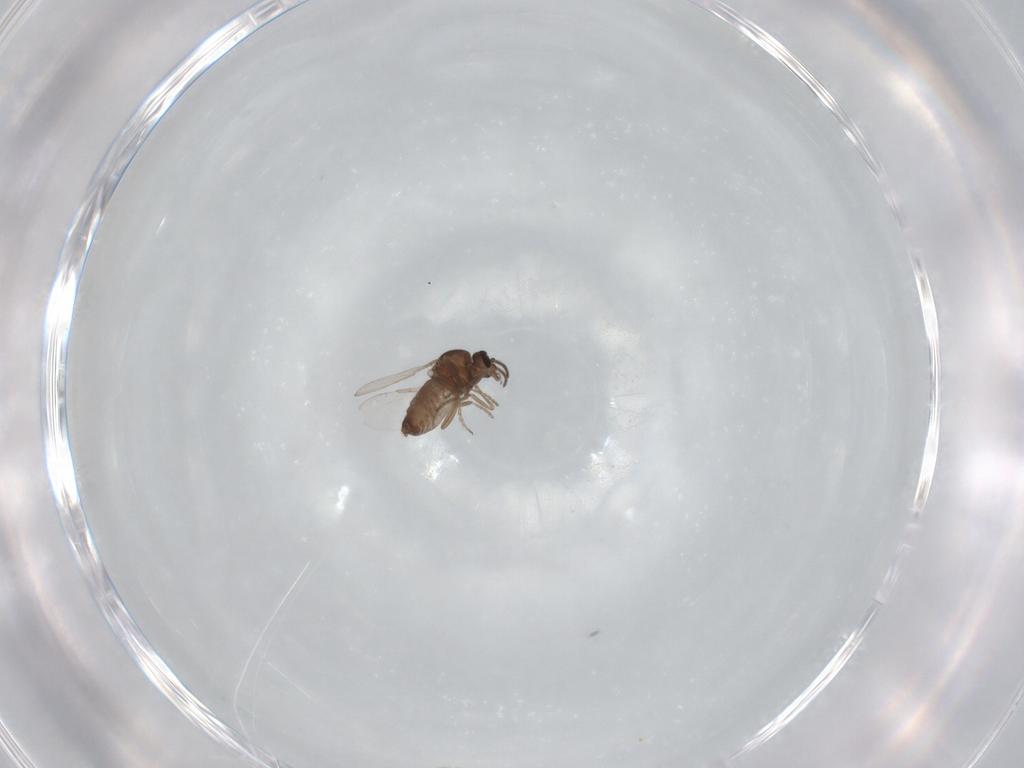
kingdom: Animalia
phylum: Arthropoda
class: Insecta
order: Diptera
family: Ceratopogonidae
